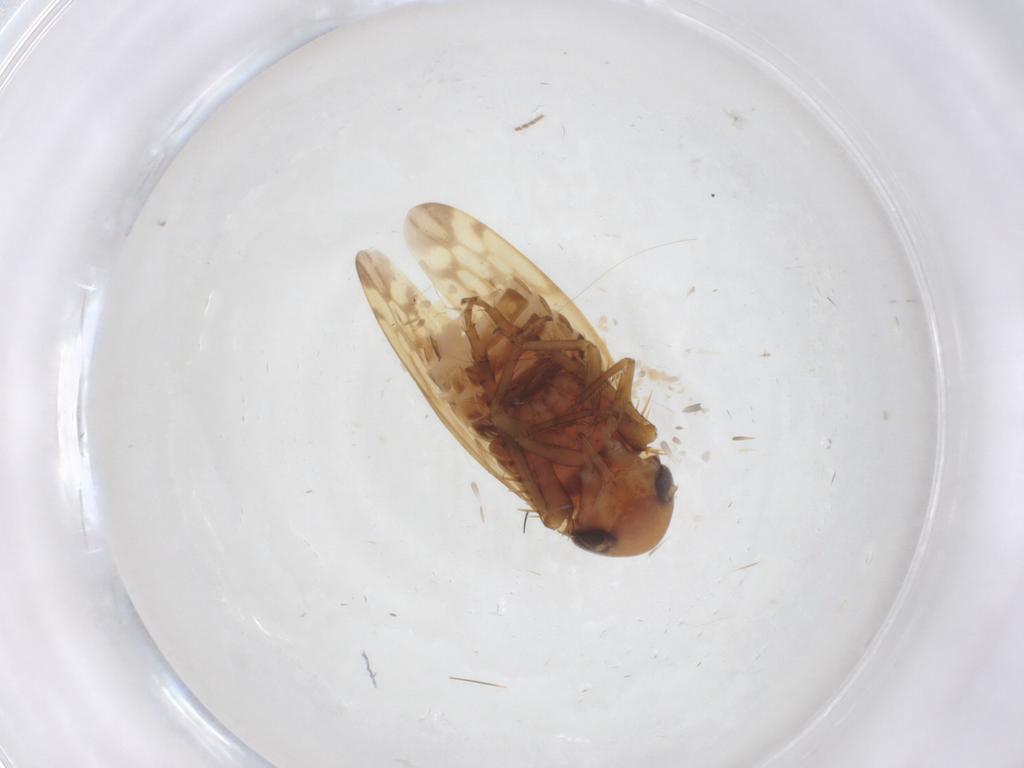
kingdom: Animalia
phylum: Arthropoda
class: Insecta
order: Hemiptera
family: Cicadellidae
